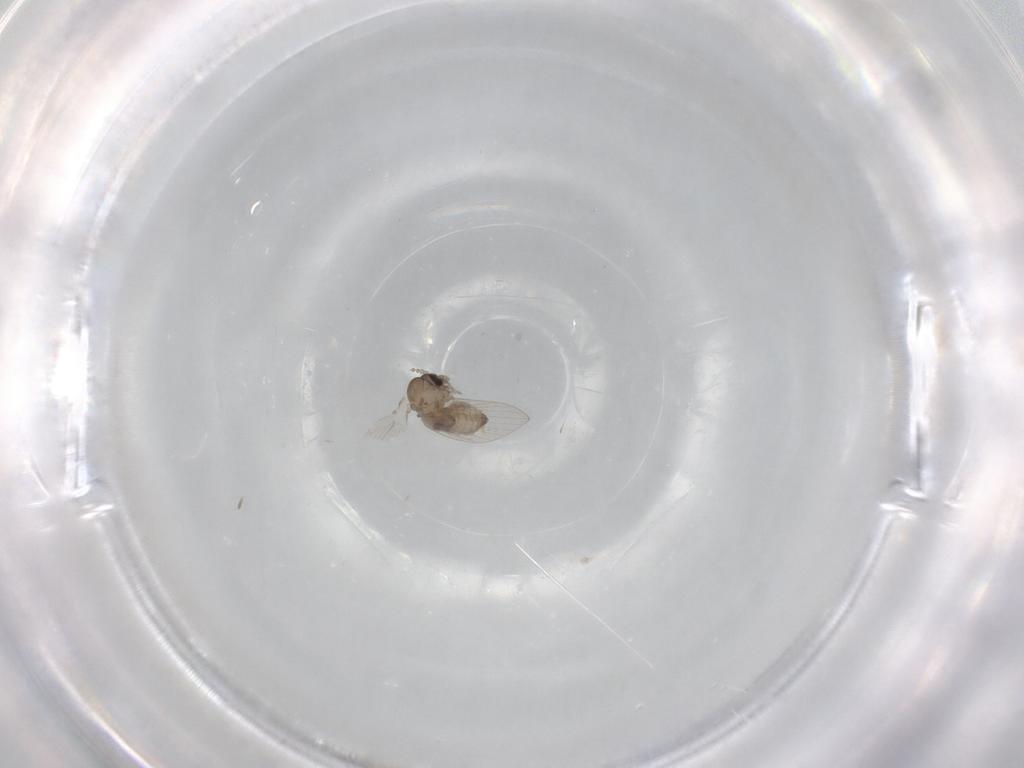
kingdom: Animalia
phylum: Arthropoda
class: Insecta
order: Diptera
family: Psychodidae
